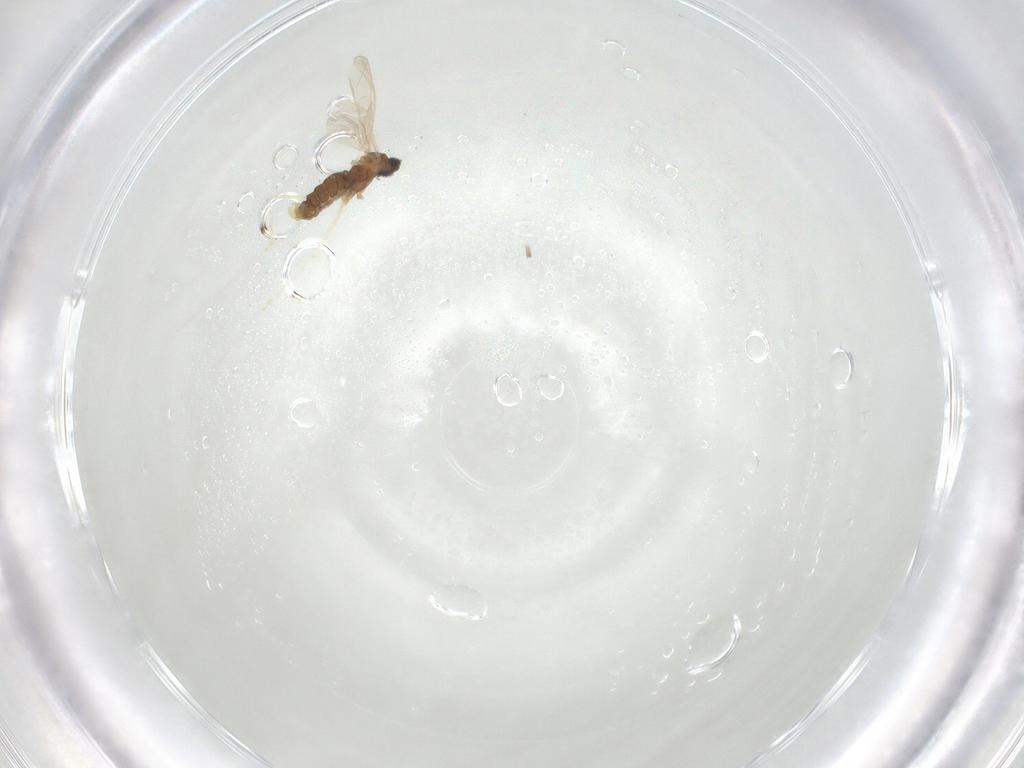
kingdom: Animalia
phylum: Arthropoda
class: Insecta
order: Diptera
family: Cecidomyiidae
